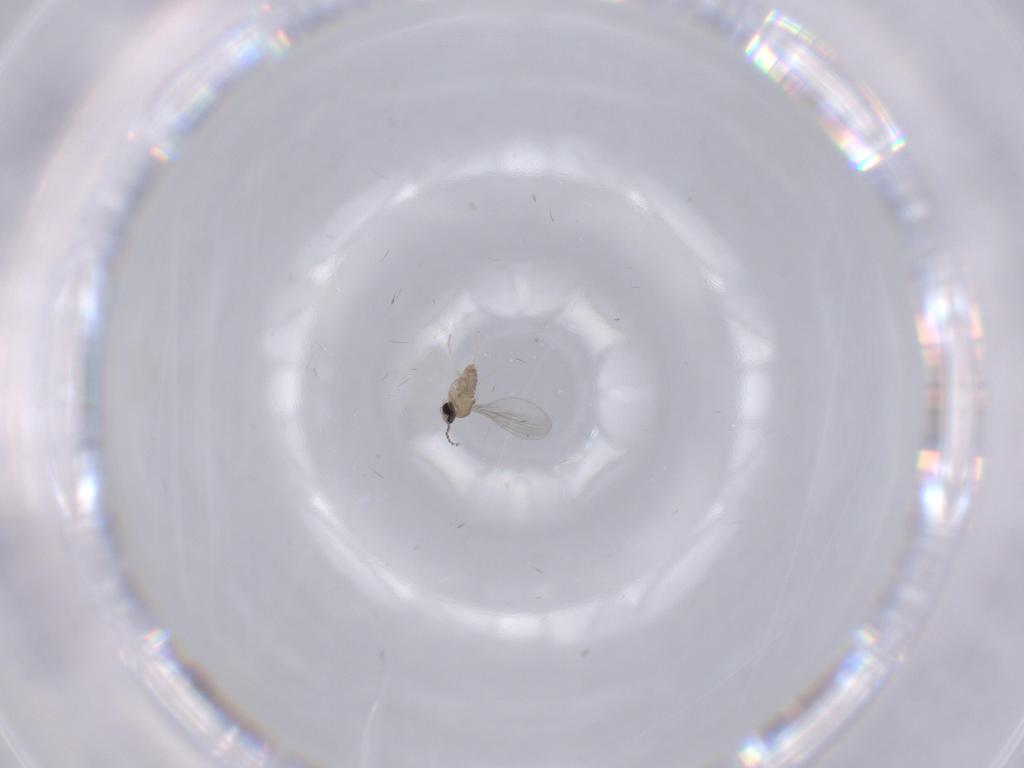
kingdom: Animalia
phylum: Arthropoda
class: Insecta
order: Diptera
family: Cecidomyiidae
